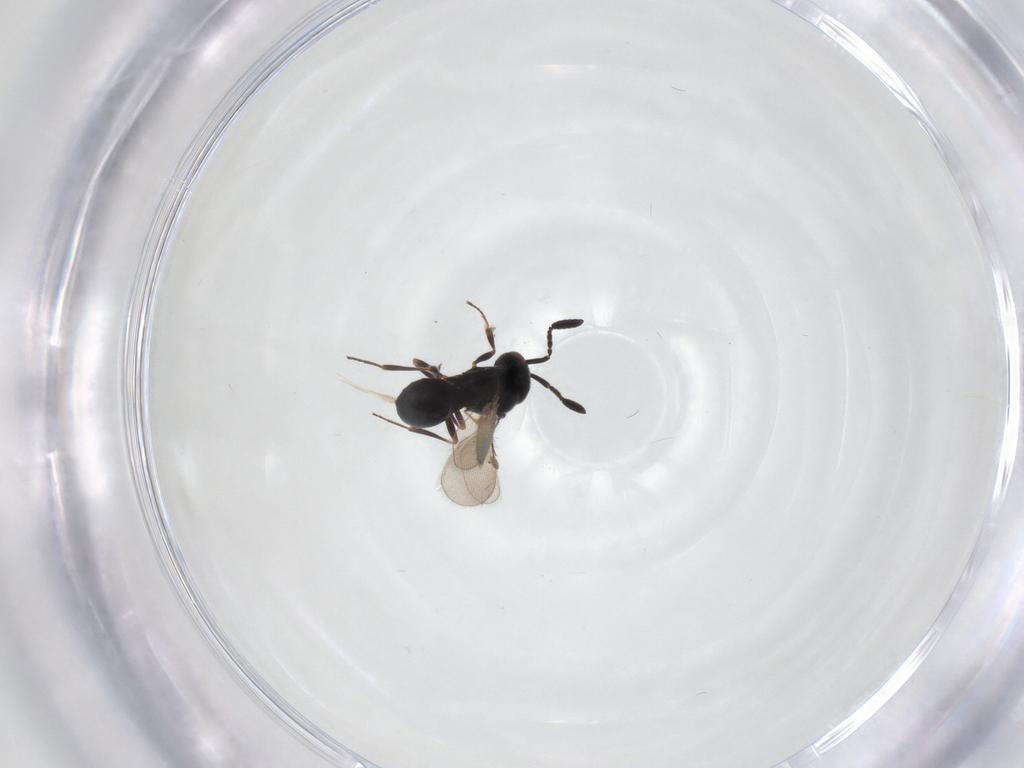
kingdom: Animalia
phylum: Arthropoda
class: Insecta
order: Hymenoptera
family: Scelionidae
